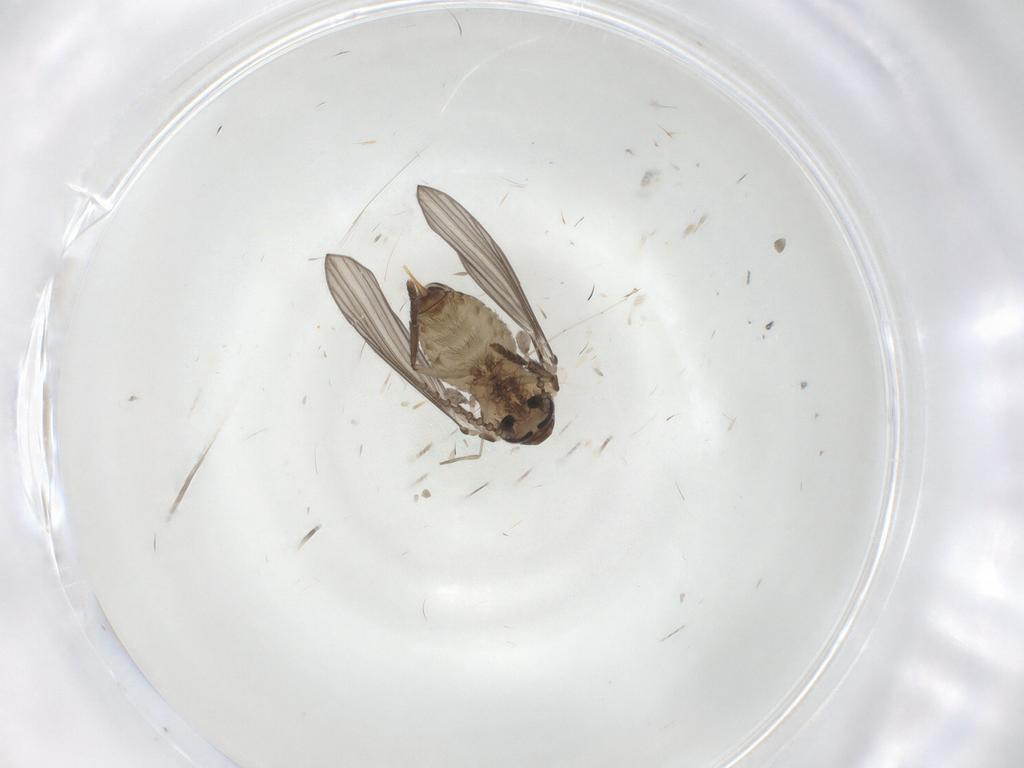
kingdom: Animalia
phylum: Arthropoda
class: Insecta
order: Diptera
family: Psychodidae
